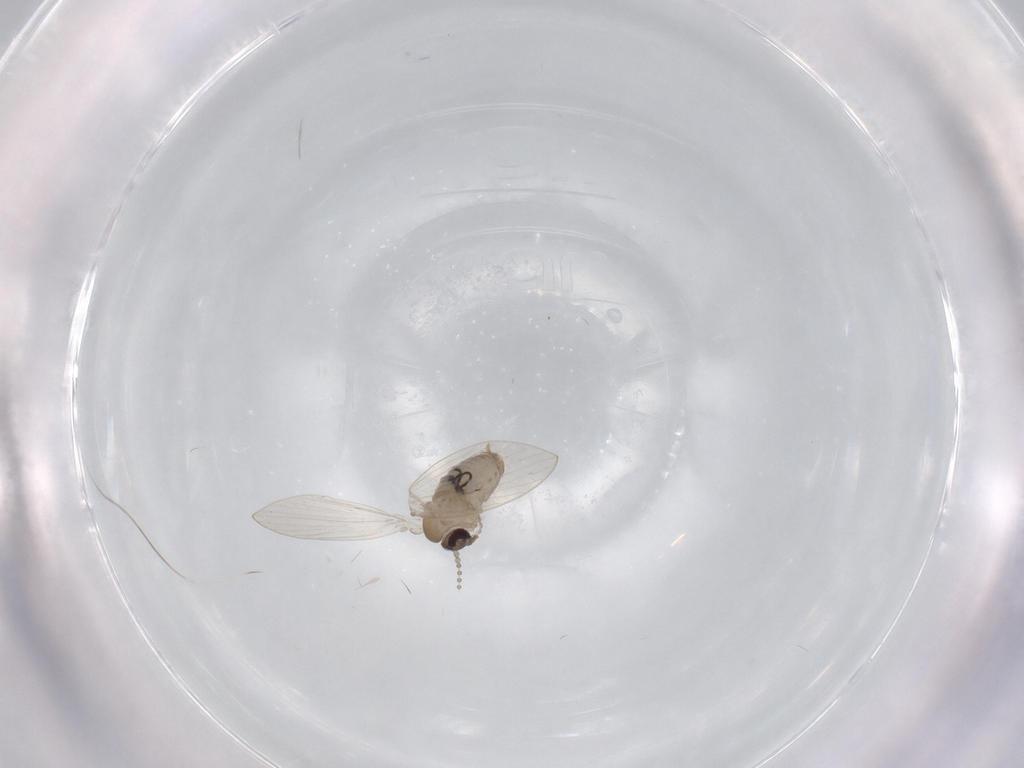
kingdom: Animalia
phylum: Arthropoda
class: Insecta
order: Diptera
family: Psychodidae
